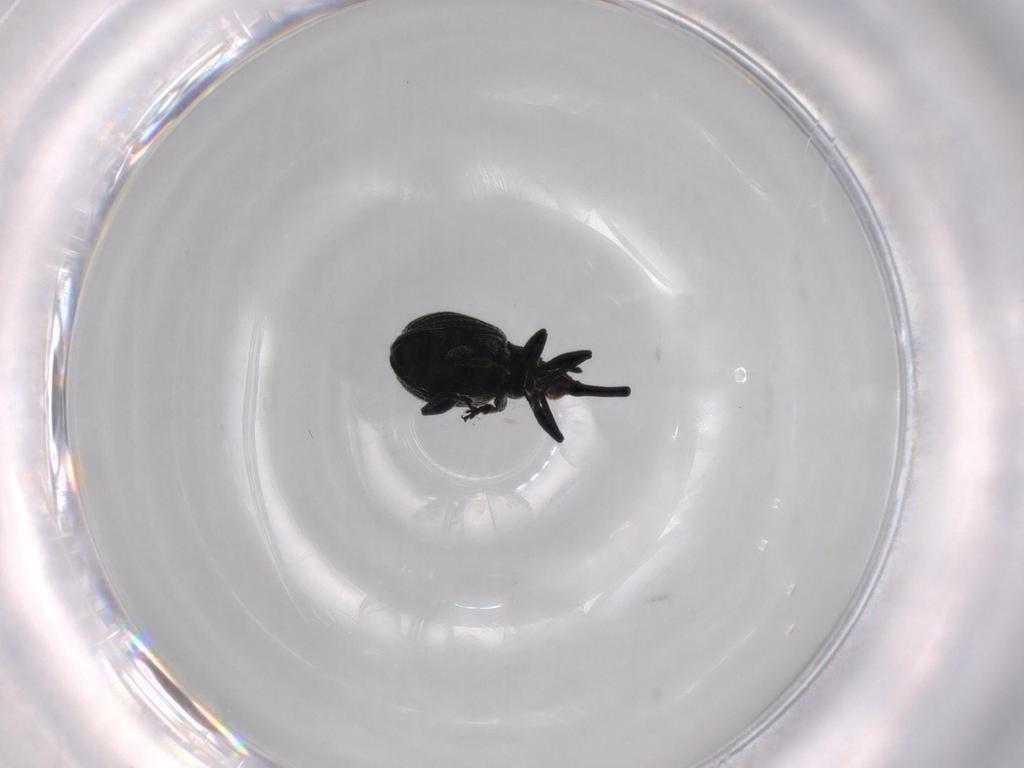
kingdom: Animalia
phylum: Arthropoda
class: Insecta
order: Coleoptera
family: Brentidae
